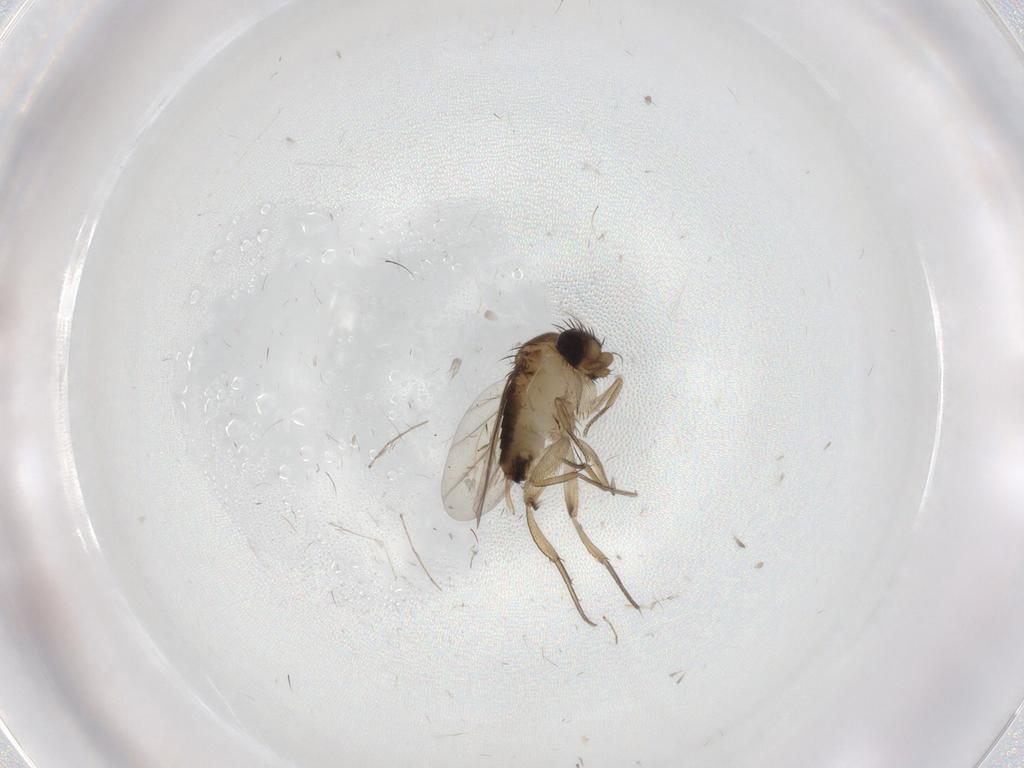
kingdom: Animalia
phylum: Arthropoda
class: Insecta
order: Diptera
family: Cecidomyiidae
